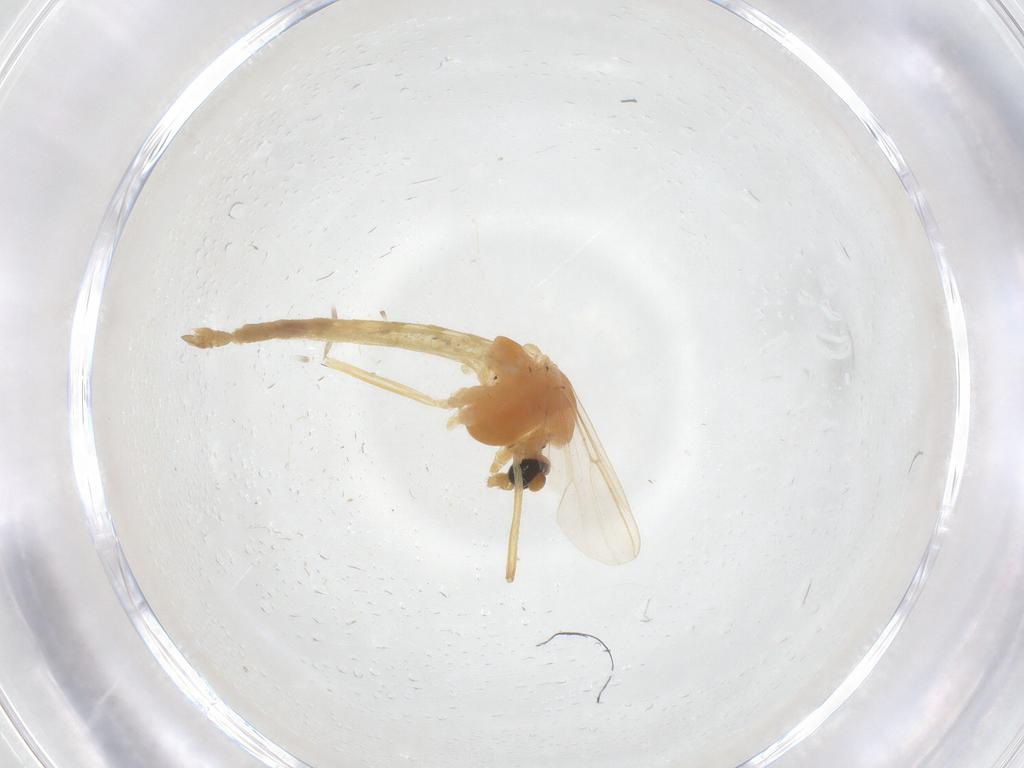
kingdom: Animalia
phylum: Arthropoda
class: Insecta
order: Diptera
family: Chironomidae
